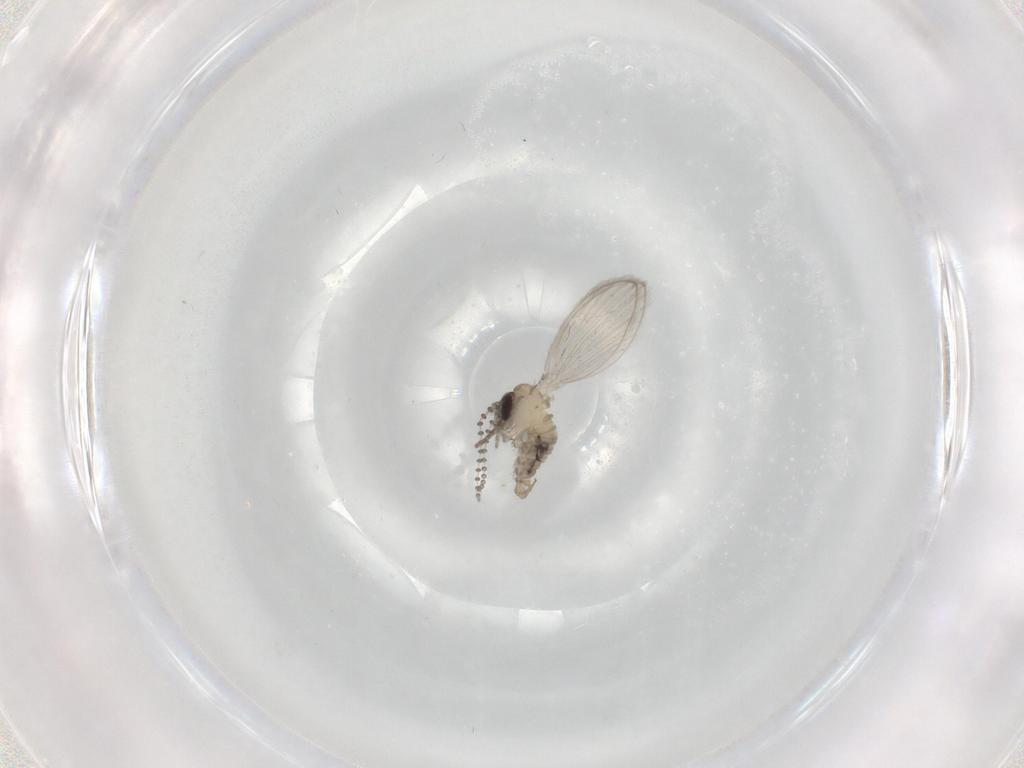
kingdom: Animalia
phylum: Arthropoda
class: Insecta
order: Diptera
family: Psychodidae
